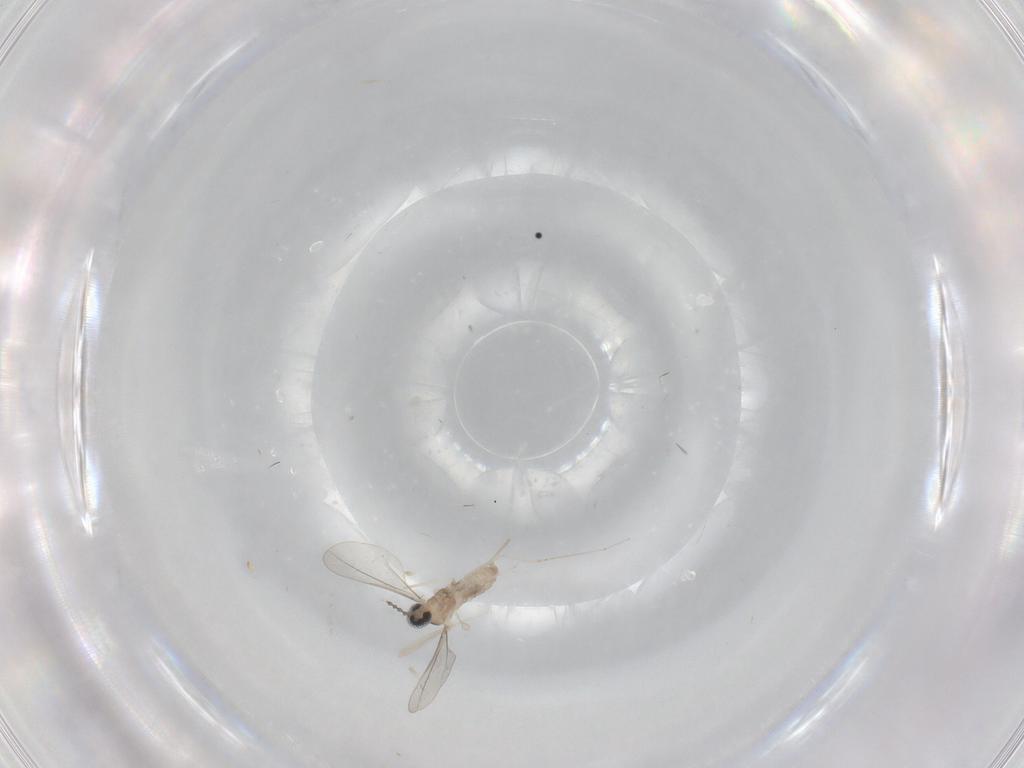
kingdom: Animalia
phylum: Arthropoda
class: Insecta
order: Diptera
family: Cecidomyiidae
